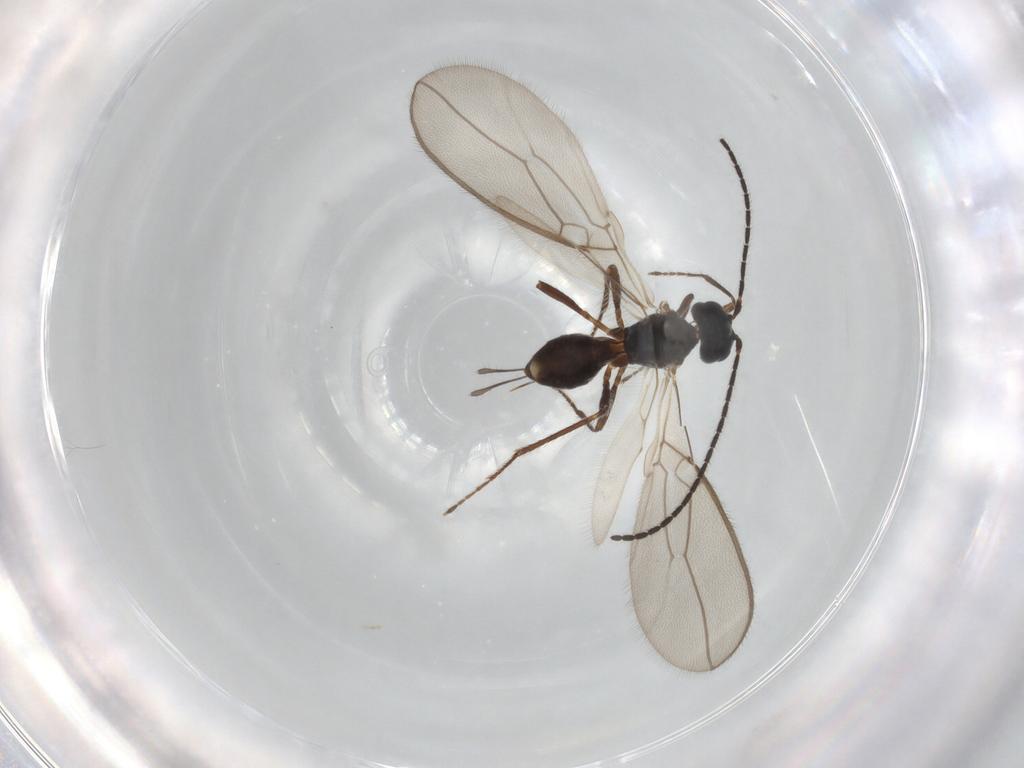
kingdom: Animalia
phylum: Arthropoda
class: Insecta
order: Hymenoptera
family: Braconidae
